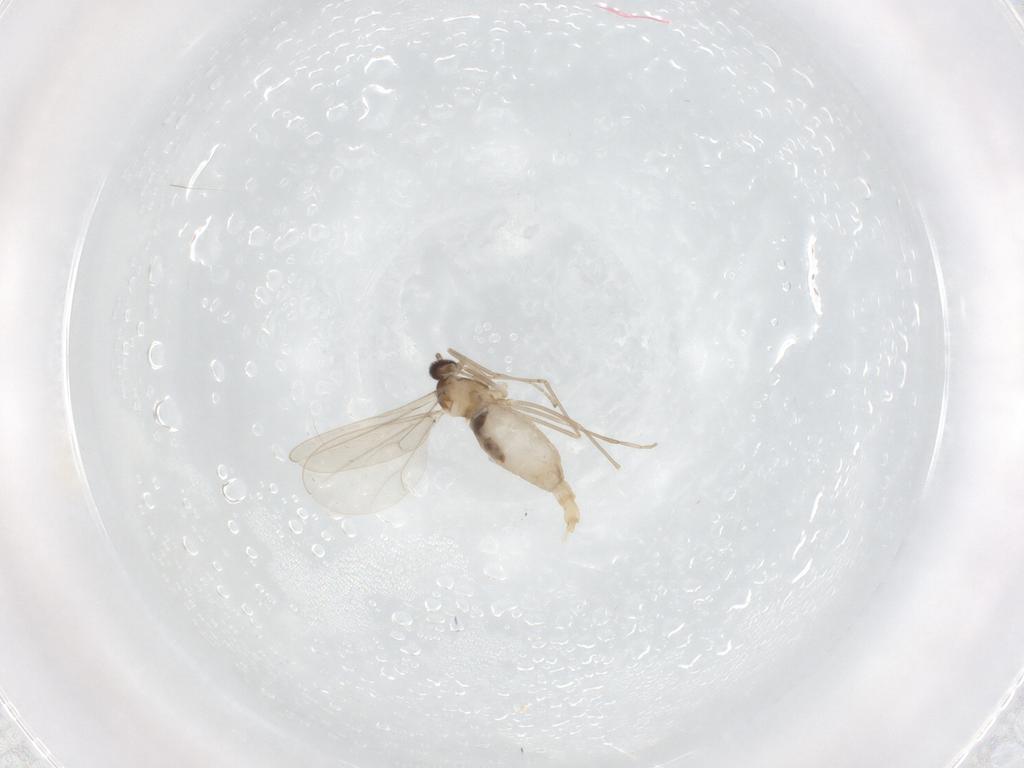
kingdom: Animalia
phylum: Arthropoda
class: Insecta
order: Diptera
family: Cecidomyiidae
